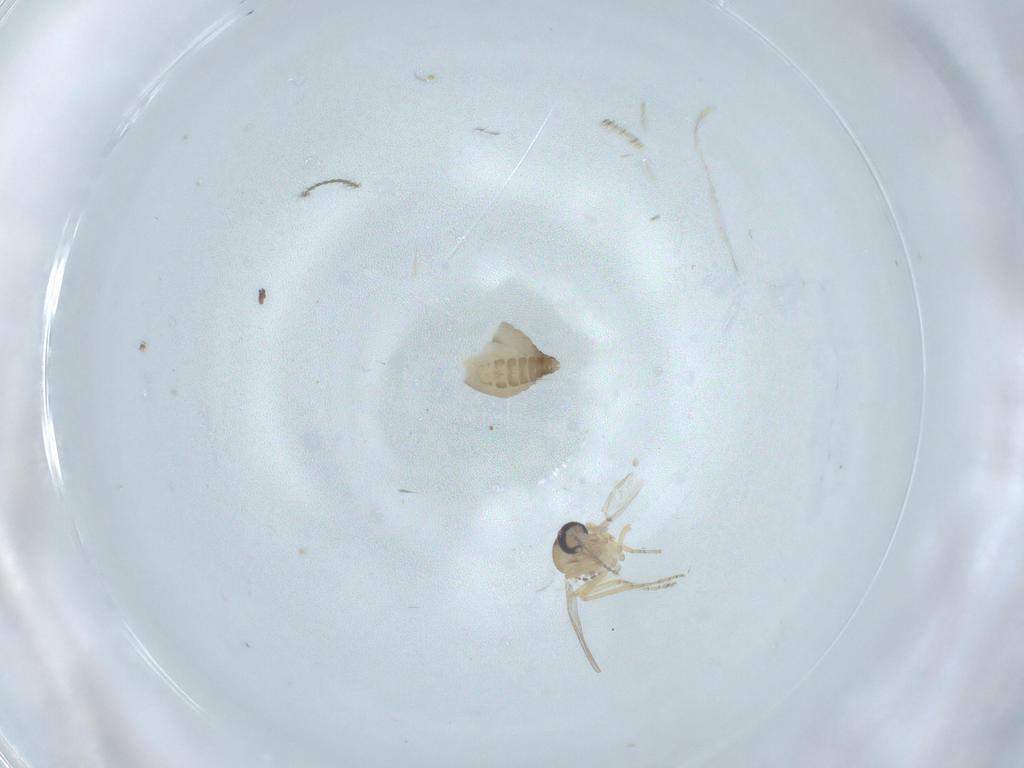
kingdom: Animalia
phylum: Arthropoda
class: Insecta
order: Diptera
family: Ceratopogonidae
